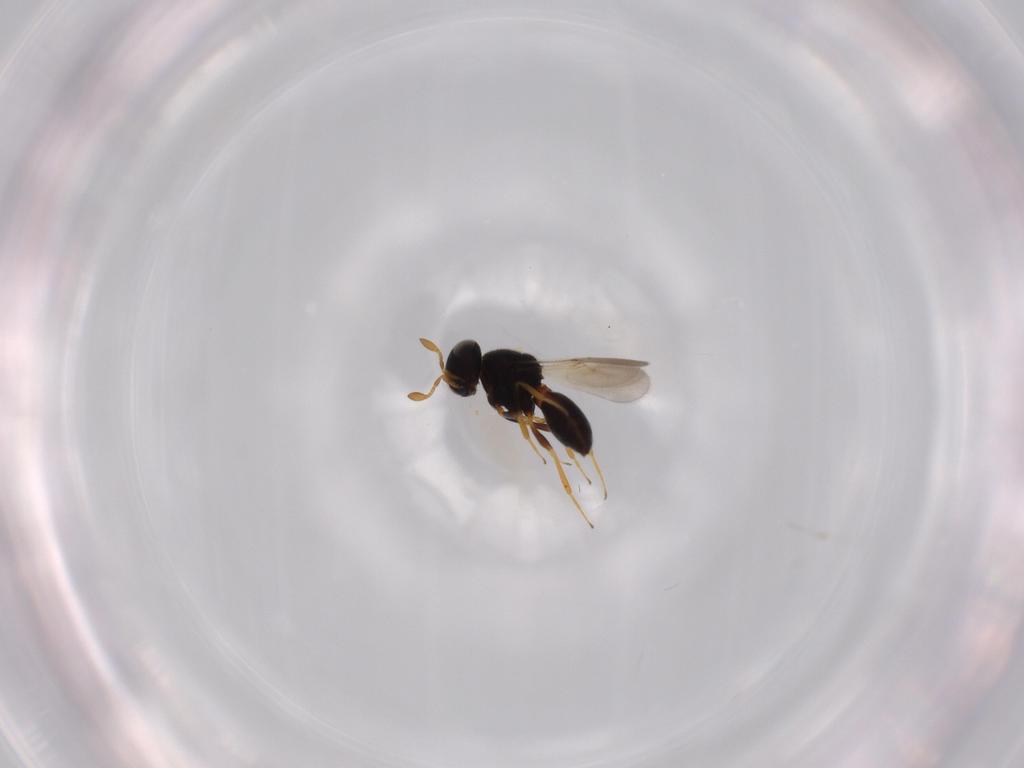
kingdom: Animalia
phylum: Arthropoda
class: Insecta
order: Hymenoptera
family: Scelionidae
